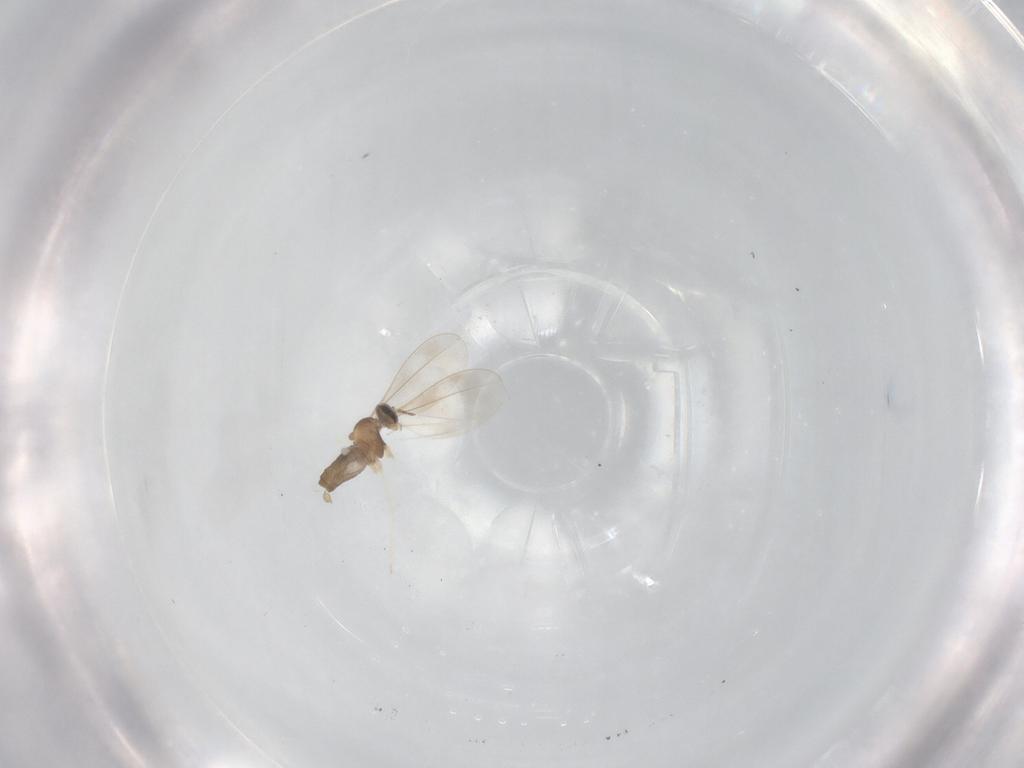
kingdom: Animalia
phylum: Arthropoda
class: Insecta
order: Diptera
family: Cecidomyiidae
